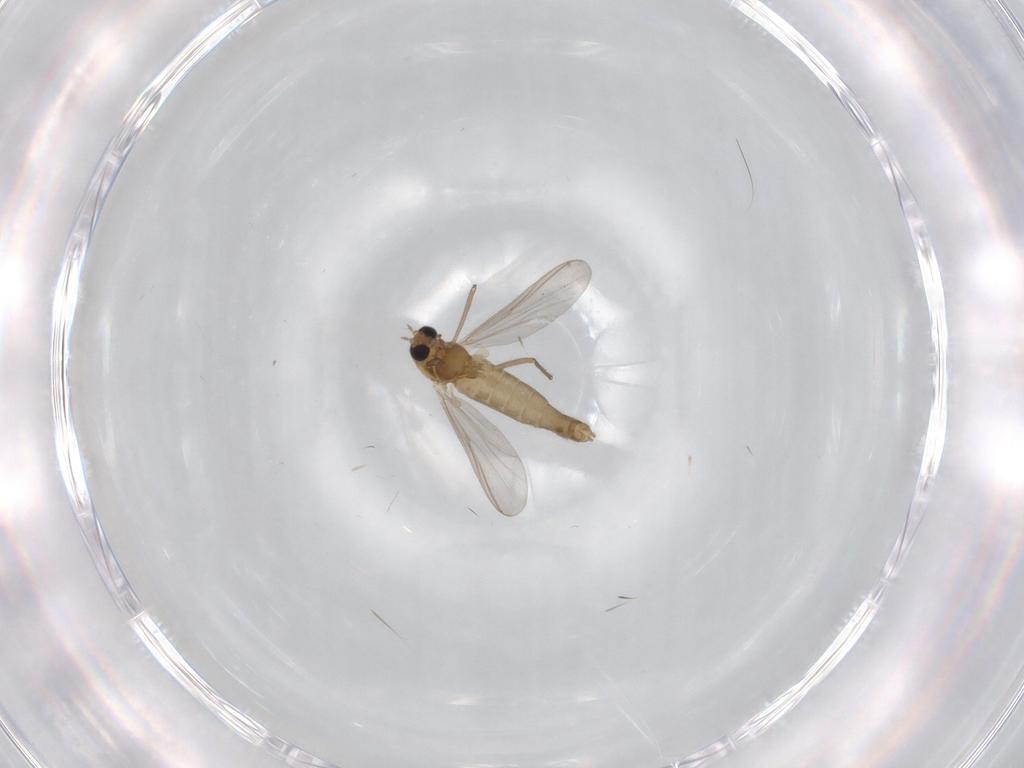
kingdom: Animalia
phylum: Arthropoda
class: Insecta
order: Diptera
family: Chironomidae
